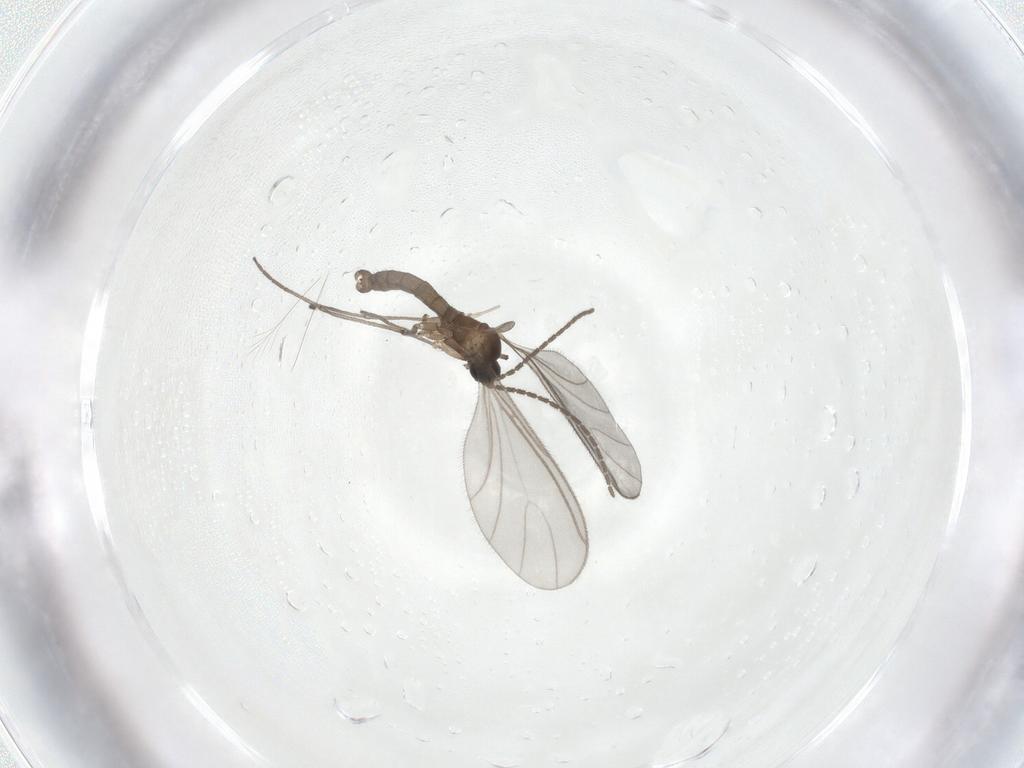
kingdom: Animalia
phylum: Arthropoda
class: Insecta
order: Diptera
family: Sciaridae
